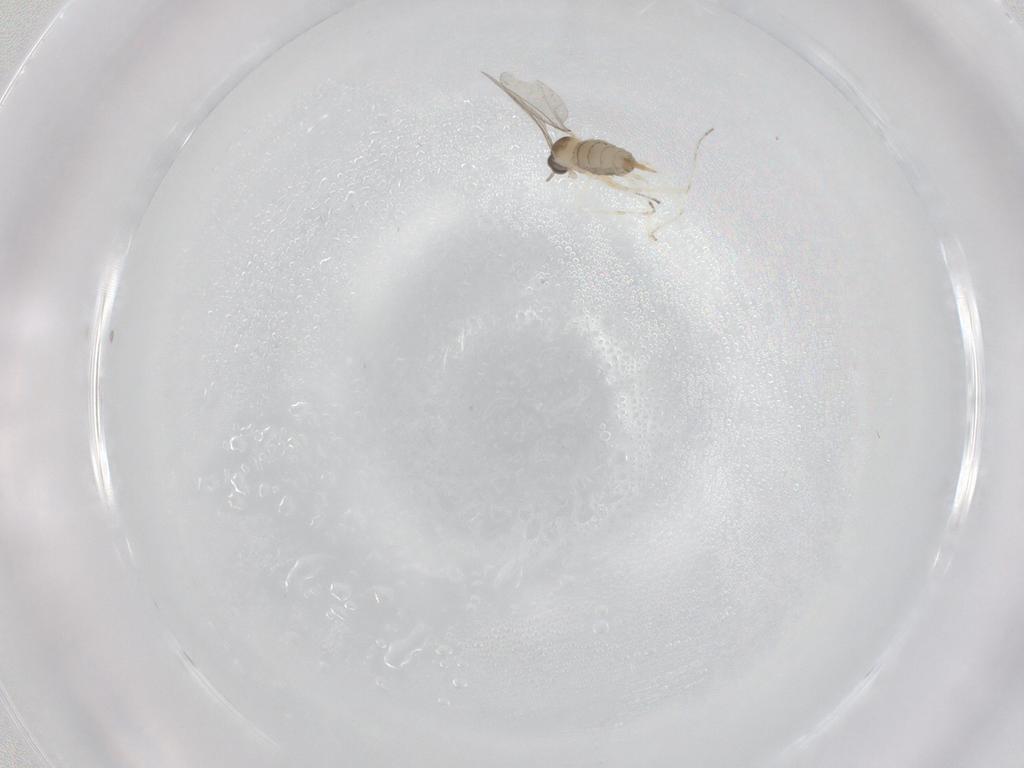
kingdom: Animalia
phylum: Arthropoda
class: Insecta
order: Diptera
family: Cecidomyiidae
